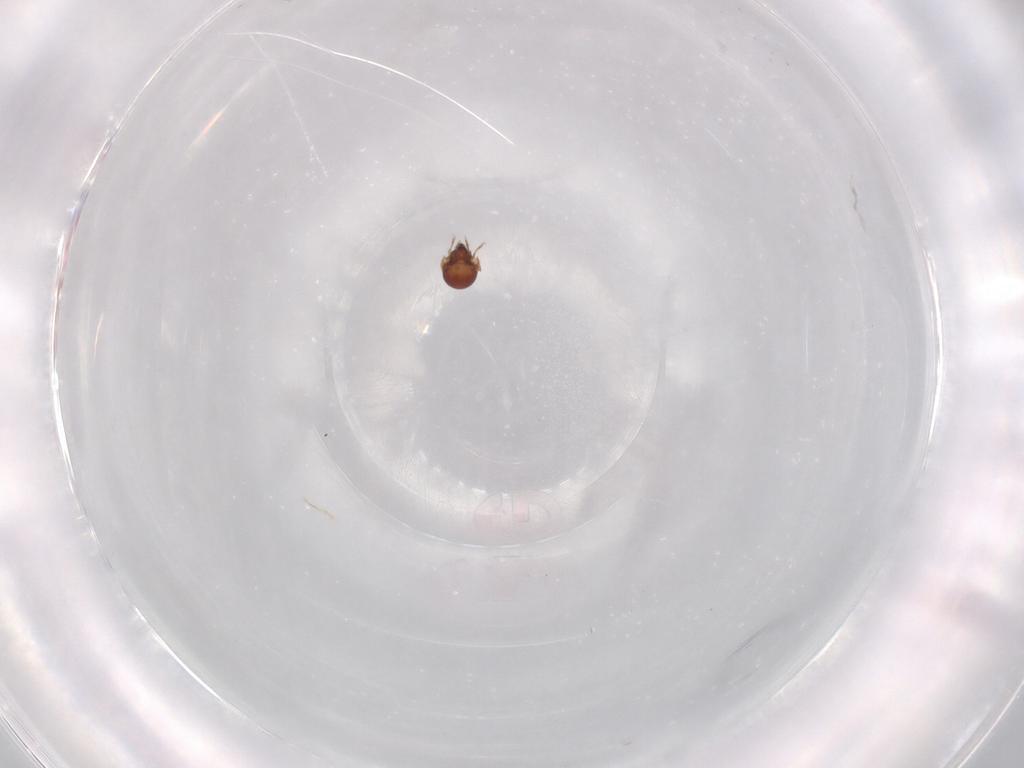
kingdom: Animalia
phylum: Arthropoda
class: Arachnida
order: Sarcoptiformes
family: Tegoribatidae
